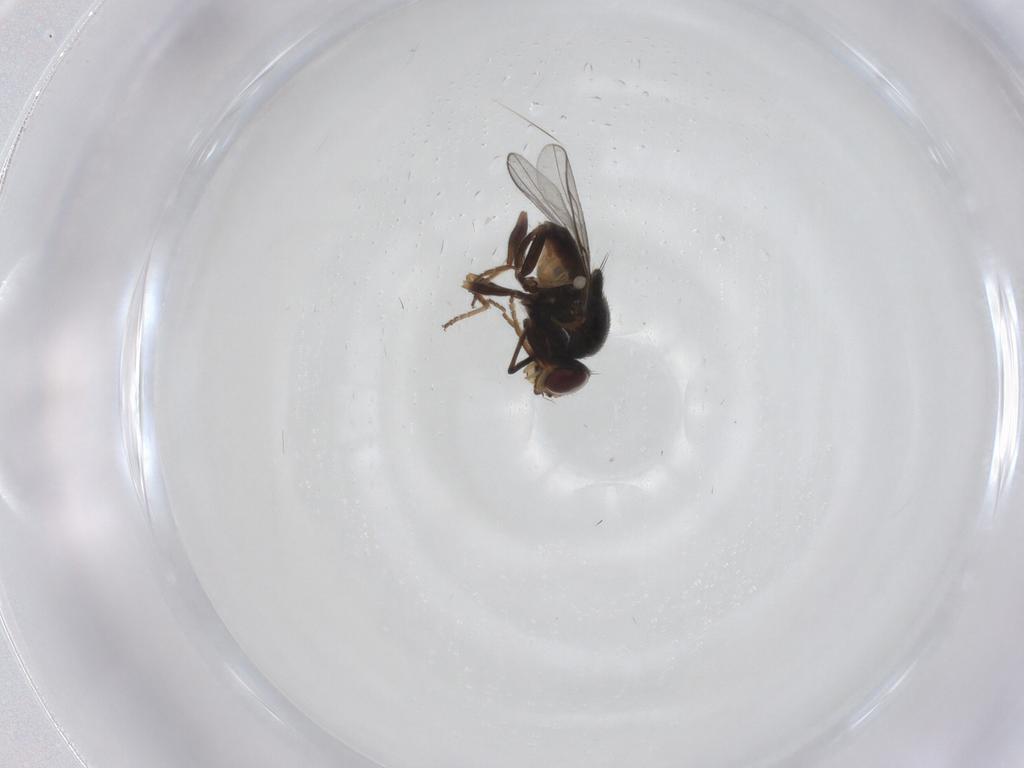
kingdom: Animalia
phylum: Arthropoda
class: Insecta
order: Diptera
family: Chloropidae
